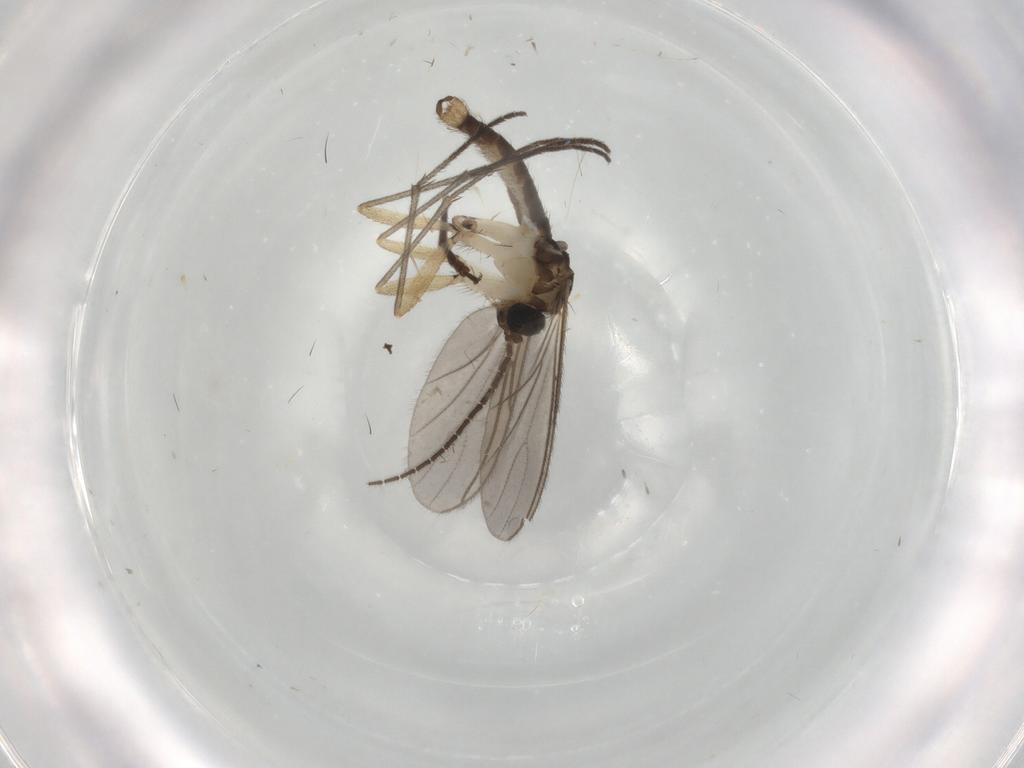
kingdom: Animalia
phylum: Arthropoda
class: Insecta
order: Diptera
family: Sciaridae
